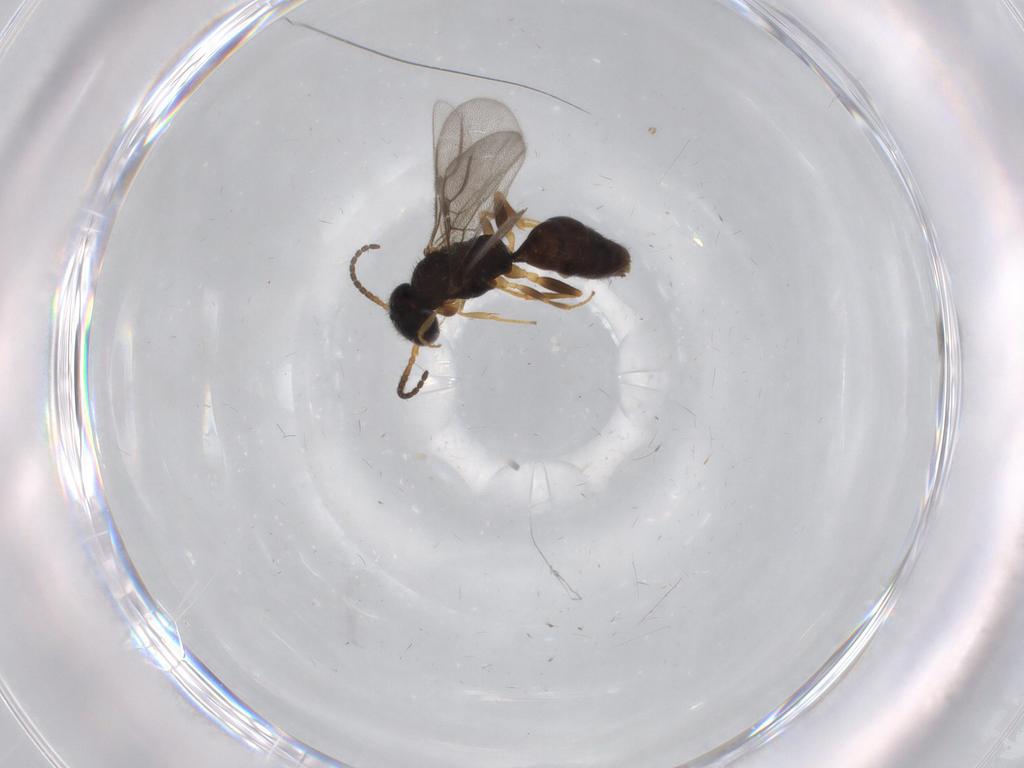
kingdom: Animalia
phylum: Arthropoda
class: Insecta
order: Hymenoptera
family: Bethylidae
